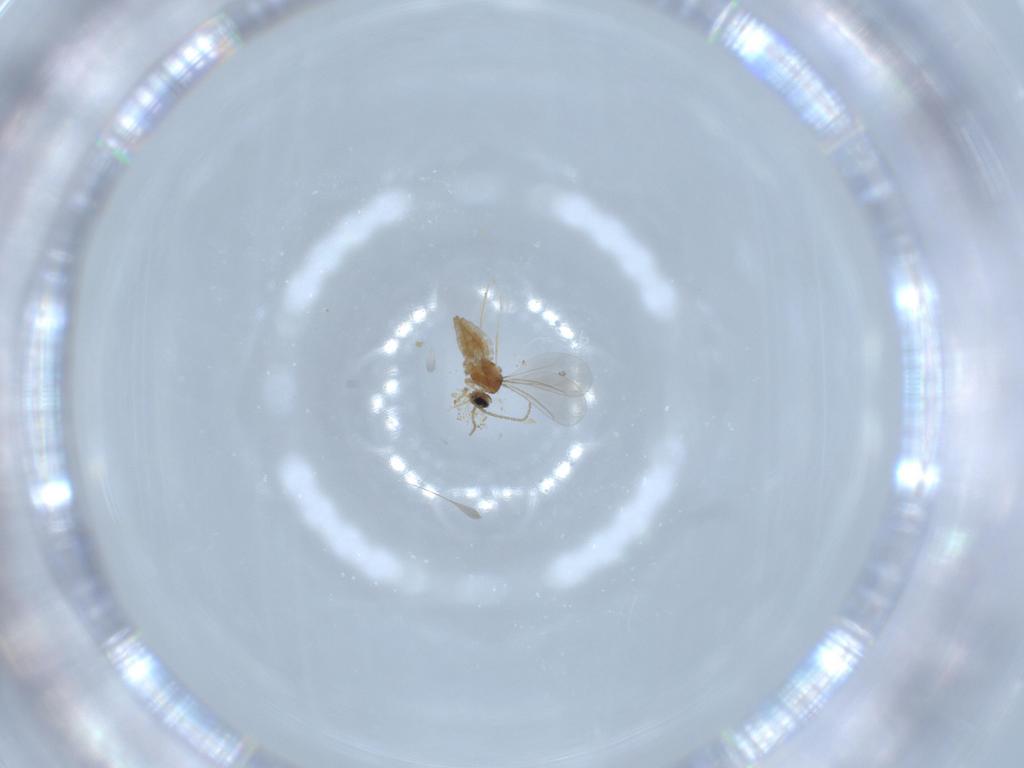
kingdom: Animalia
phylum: Arthropoda
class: Insecta
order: Diptera
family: Cecidomyiidae
